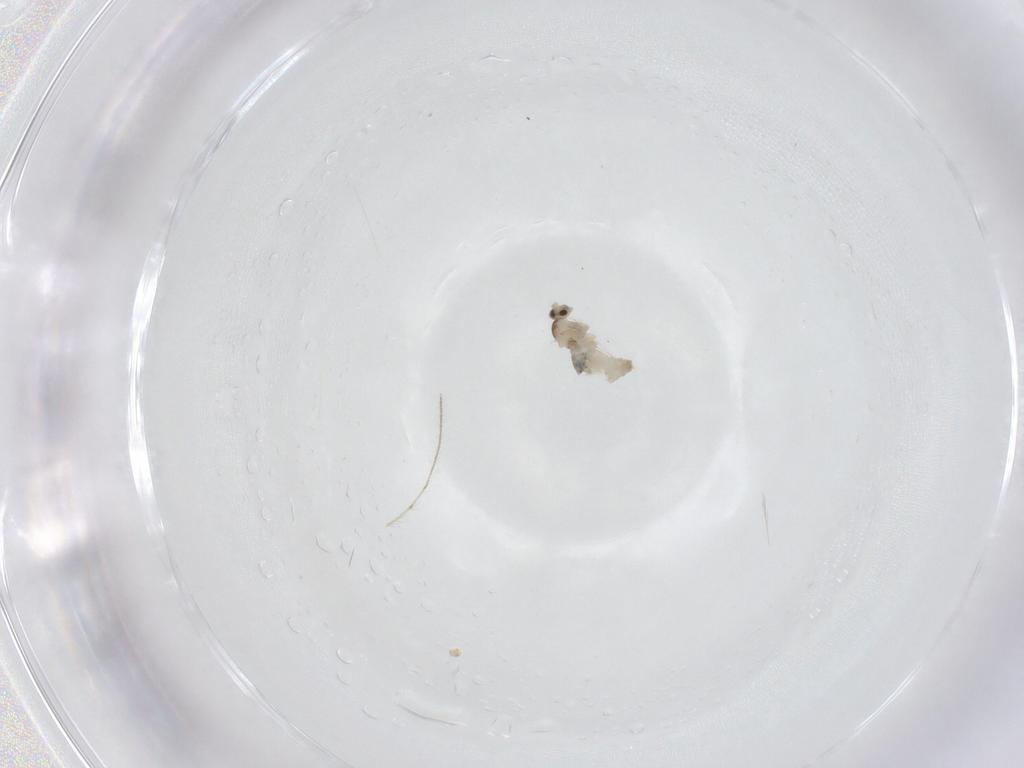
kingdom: Animalia
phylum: Arthropoda
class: Insecta
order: Diptera
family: Cecidomyiidae
